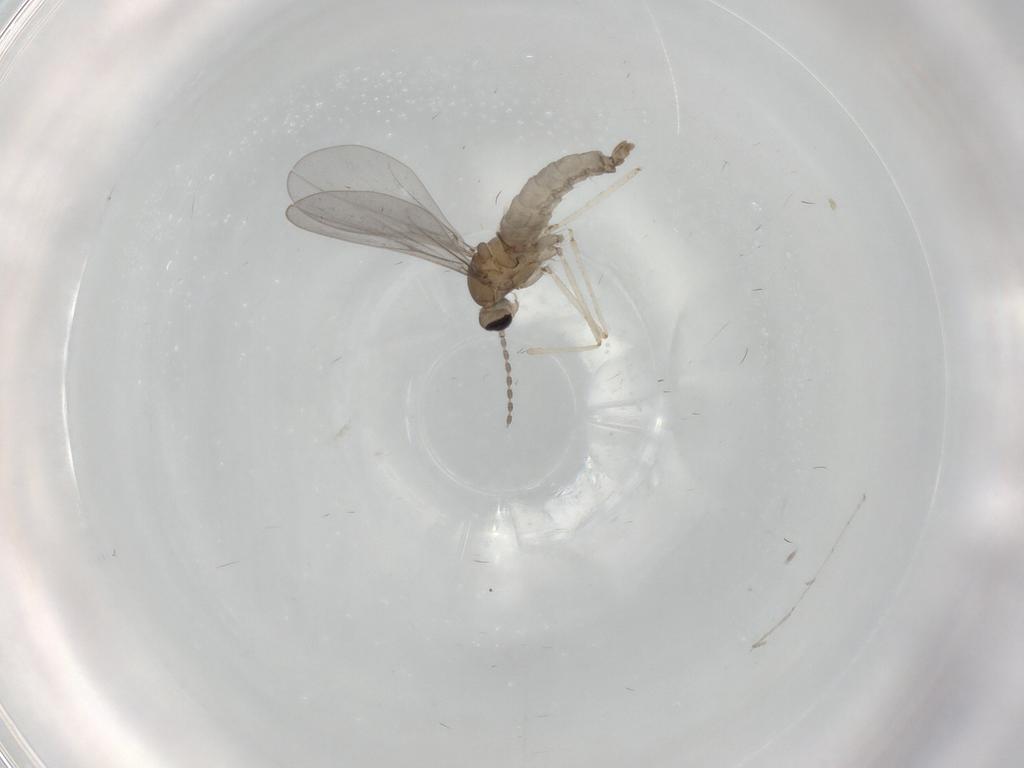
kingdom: Animalia
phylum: Arthropoda
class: Insecta
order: Diptera
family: Cecidomyiidae
